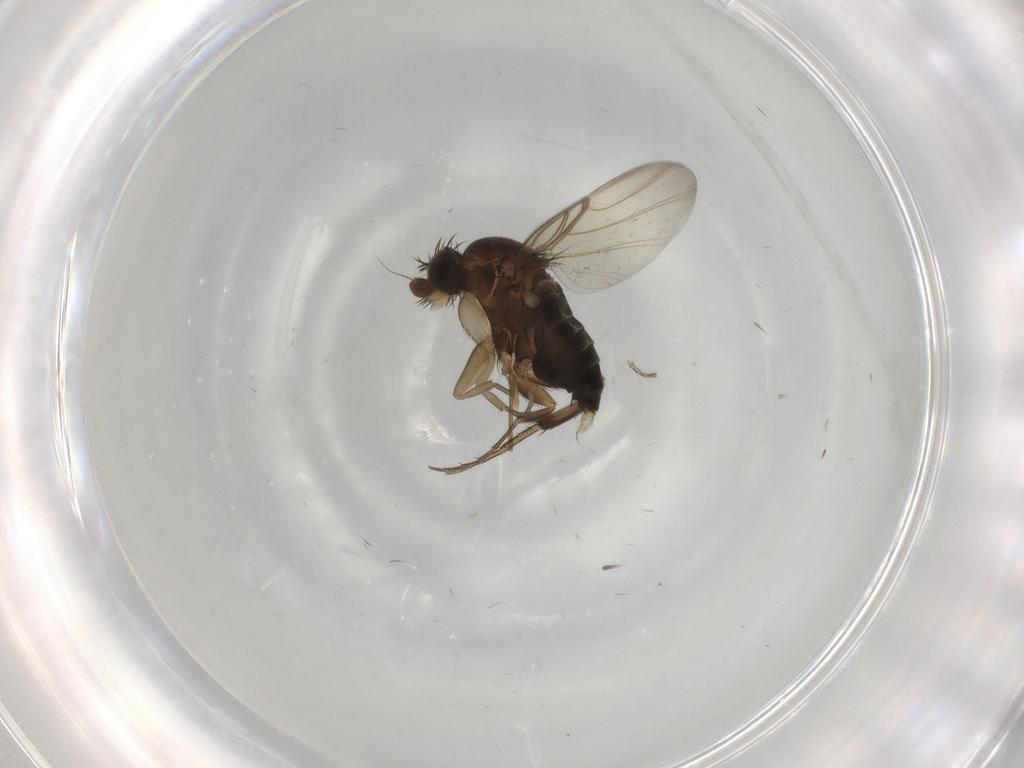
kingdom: Animalia
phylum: Arthropoda
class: Insecta
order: Diptera
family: Phoridae
